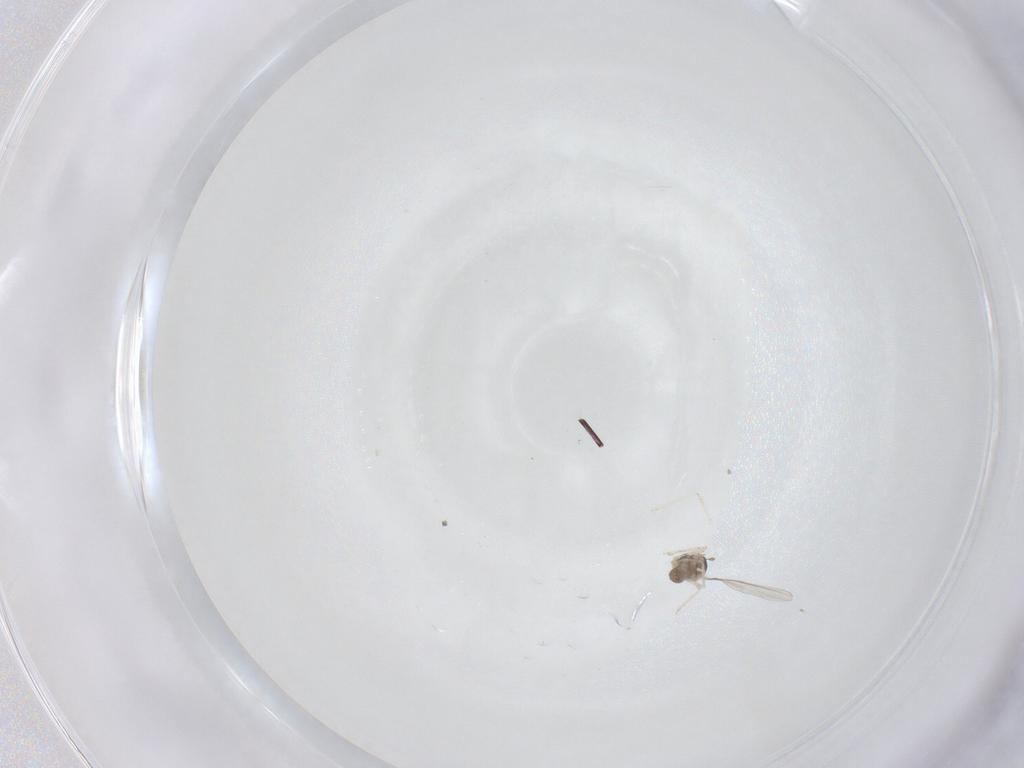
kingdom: Animalia
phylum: Arthropoda
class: Insecta
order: Diptera
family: Cecidomyiidae
